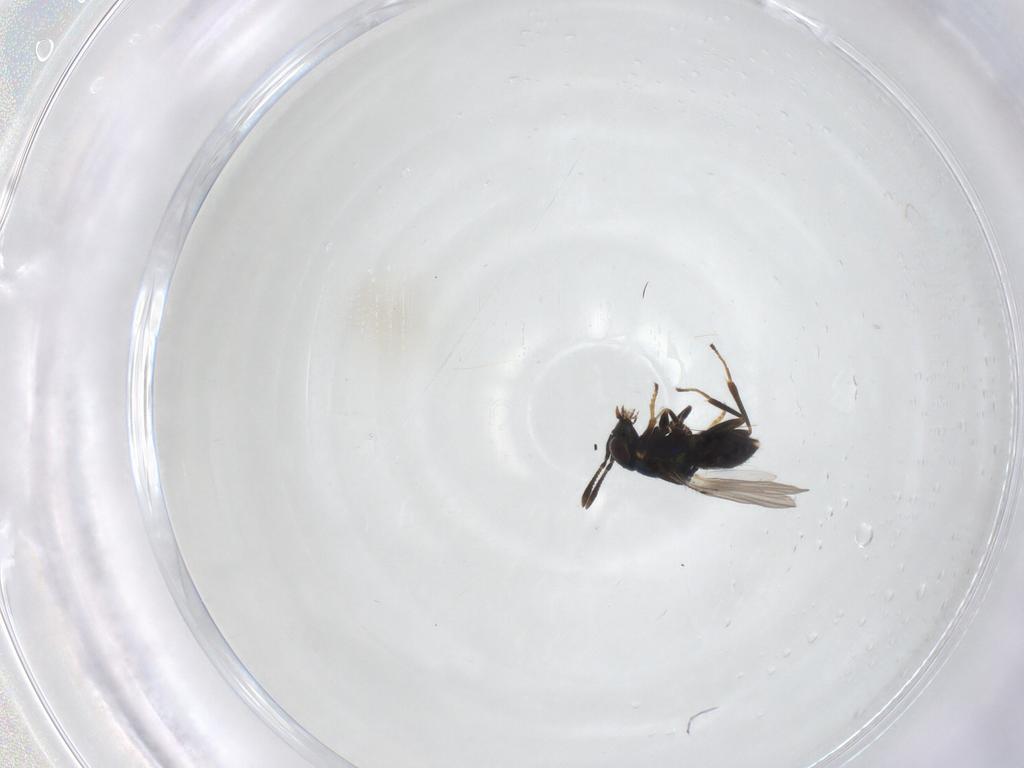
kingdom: Animalia
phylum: Arthropoda
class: Insecta
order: Hymenoptera
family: Encyrtidae
